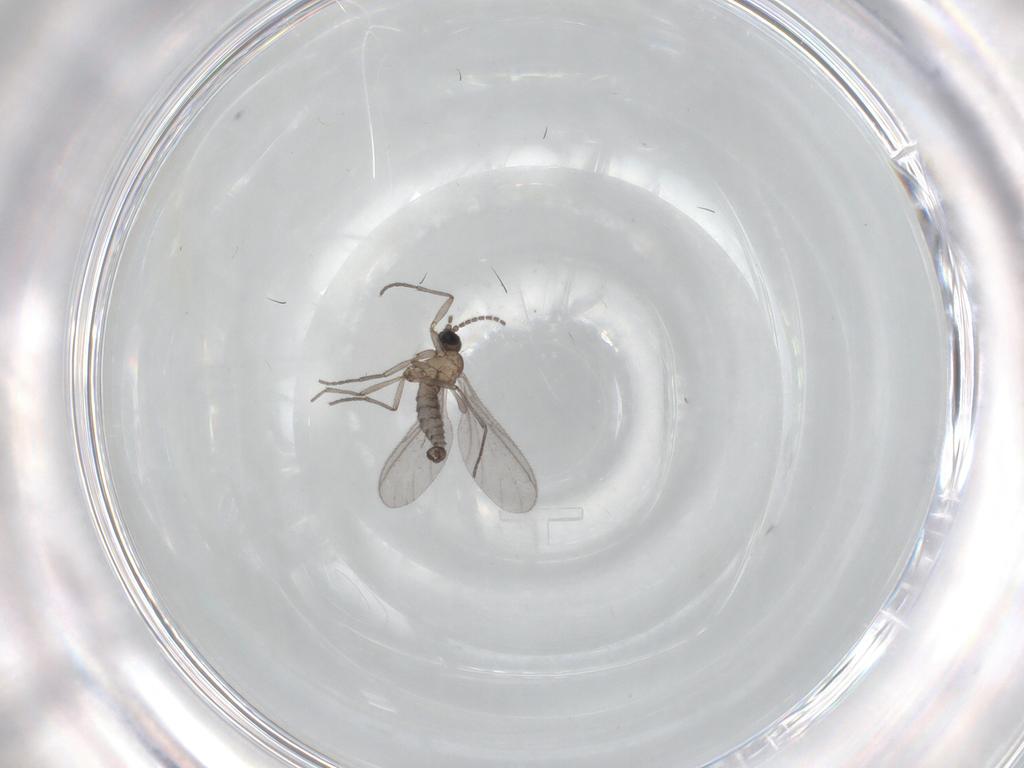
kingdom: Animalia
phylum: Arthropoda
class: Insecta
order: Diptera
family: Sciaridae
